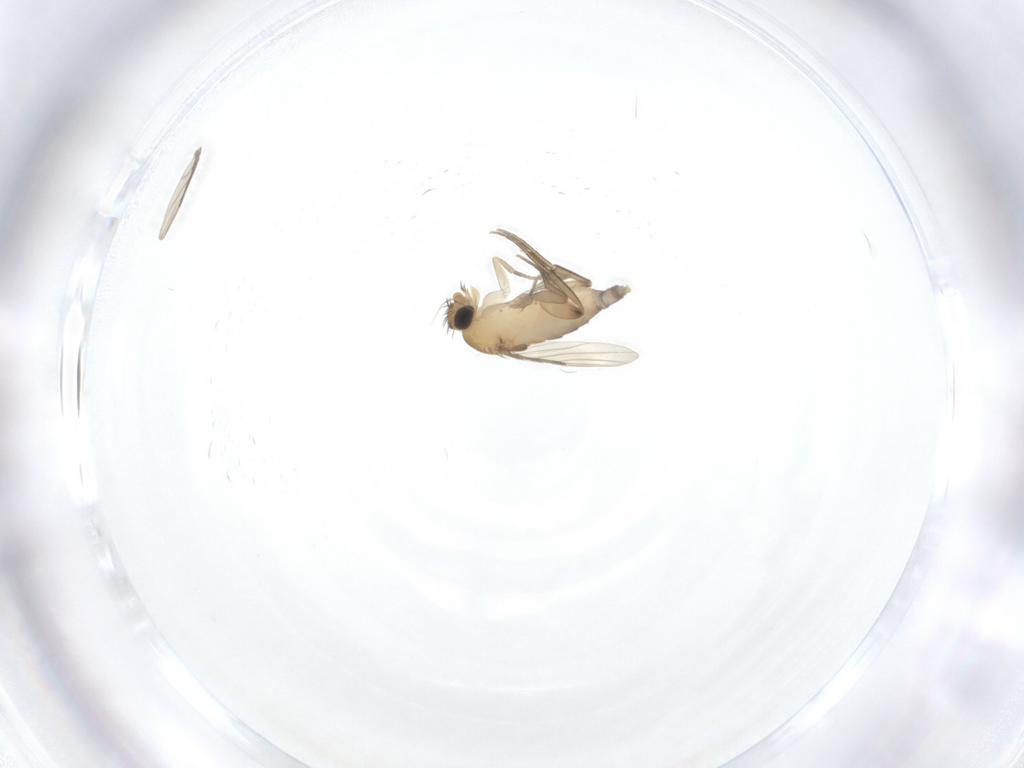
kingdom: Animalia
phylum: Arthropoda
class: Insecta
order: Diptera
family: Phoridae
